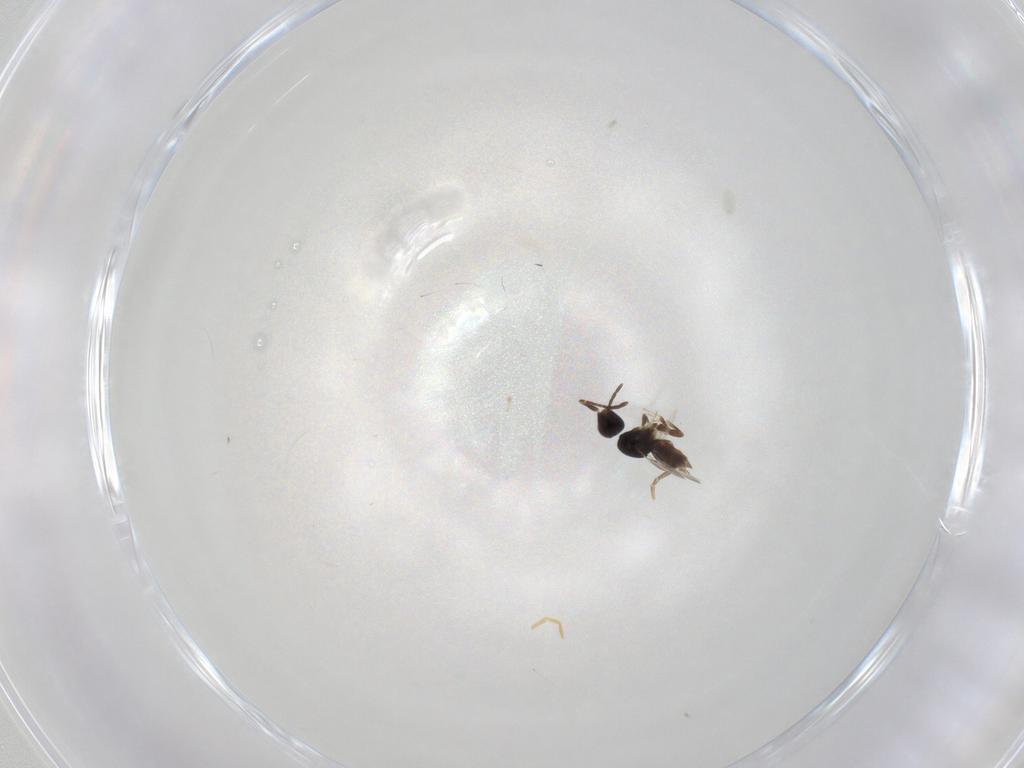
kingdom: Animalia
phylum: Arthropoda
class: Insecta
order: Hymenoptera
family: Ceraphronidae
